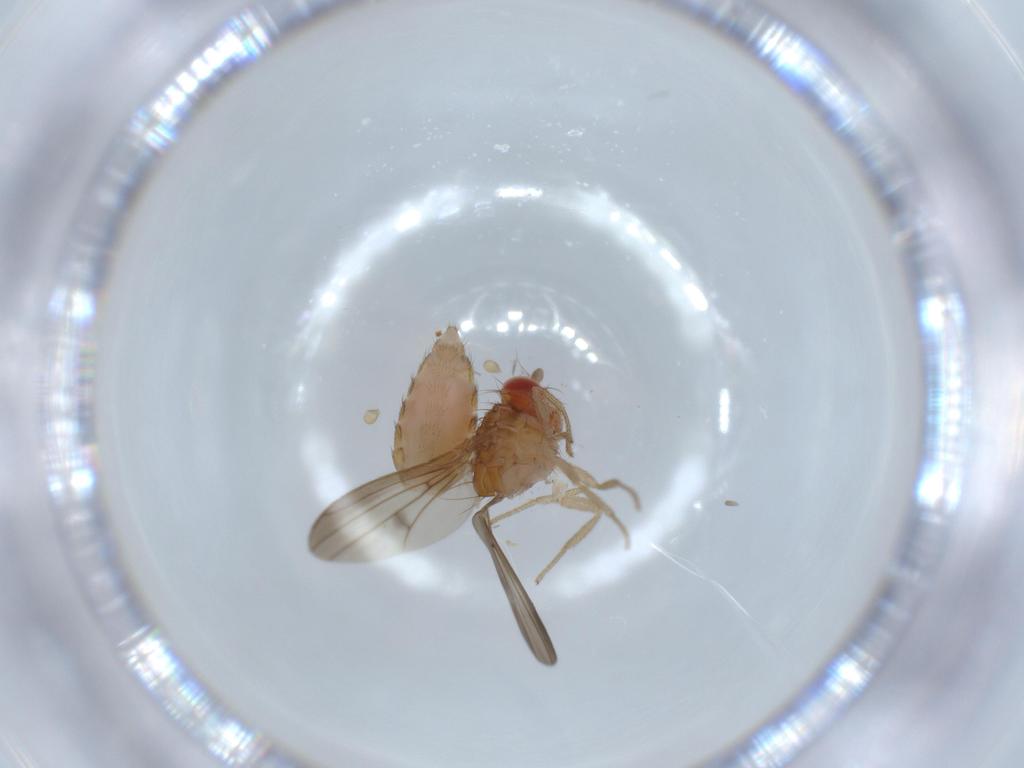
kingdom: Animalia
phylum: Arthropoda
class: Insecta
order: Diptera
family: Drosophilidae
